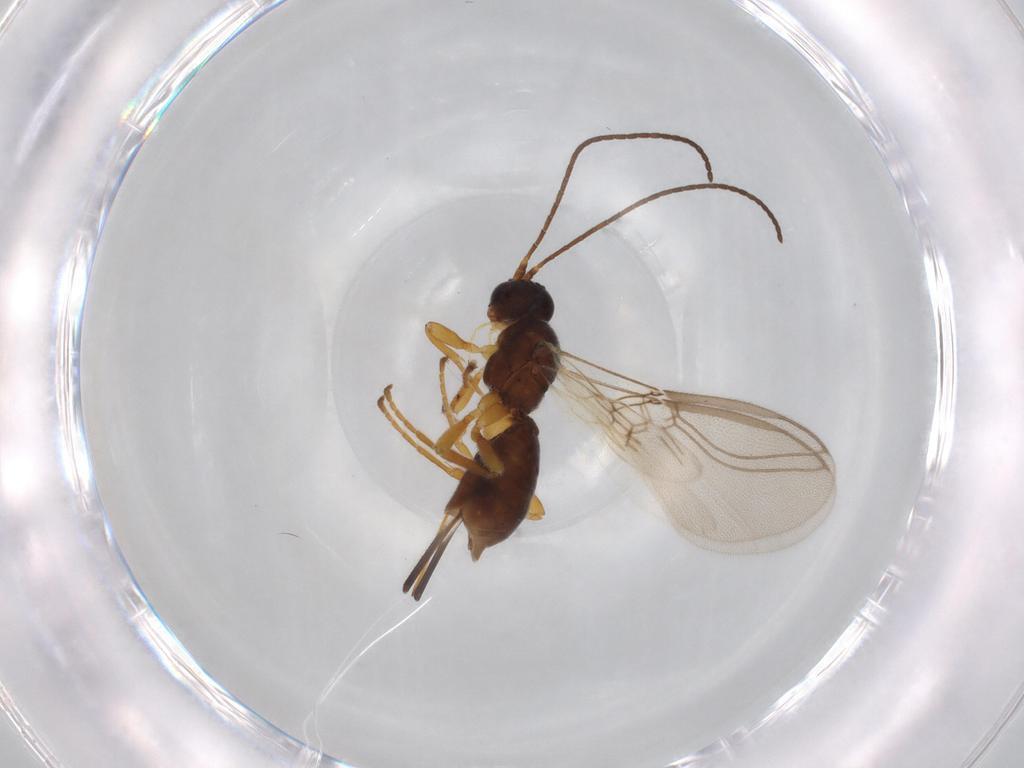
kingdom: Animalia
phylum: Arthropoda
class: Insecta
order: Hymenoptera
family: Braconidae
